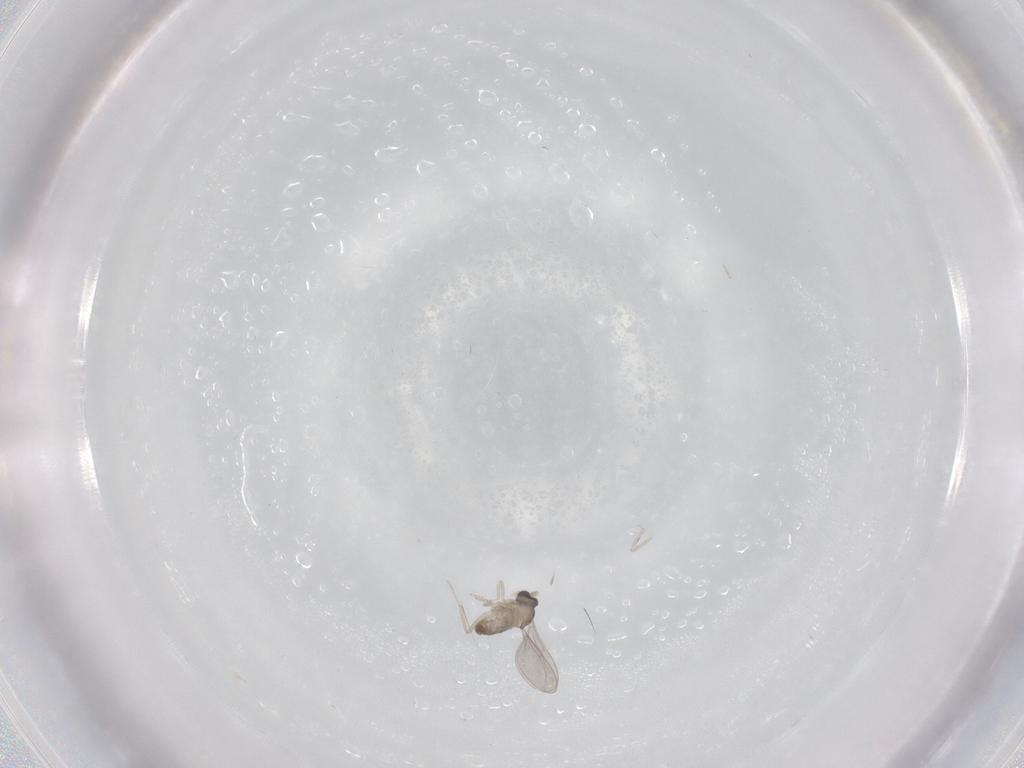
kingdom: Animalia
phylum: Arthropoda
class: Insecta
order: Diptera
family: Cecidomyiidae
